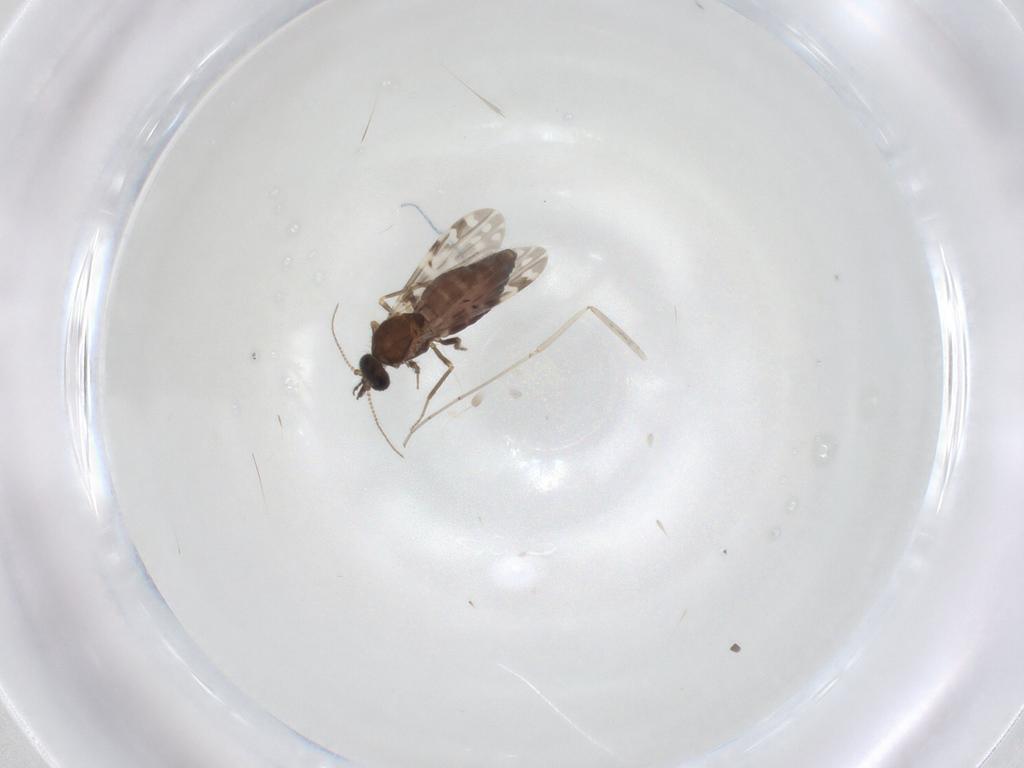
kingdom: Animalia
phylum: Arthropoda
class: Insecta
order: Diptera
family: Ceratopogonidae
